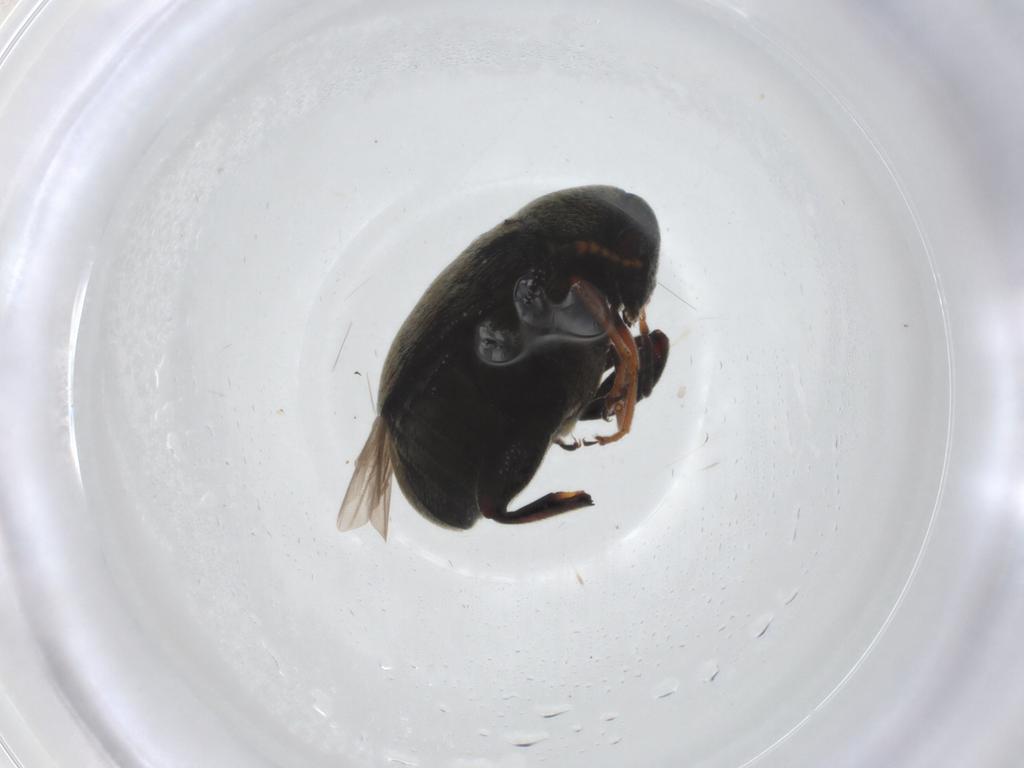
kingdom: Animalia
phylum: Arthropoda
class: Insecta
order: Coleoptera
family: Chrysomelidae
